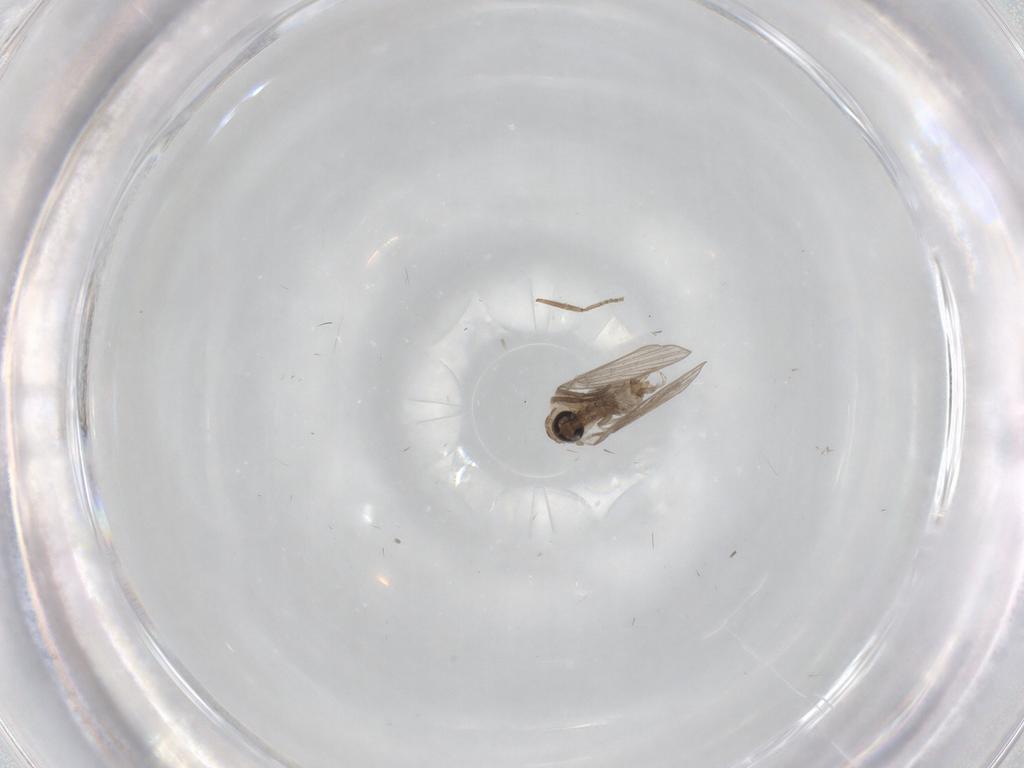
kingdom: Animalia
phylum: Arthropoda
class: Insecta
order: Diptera
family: Psychodidae
